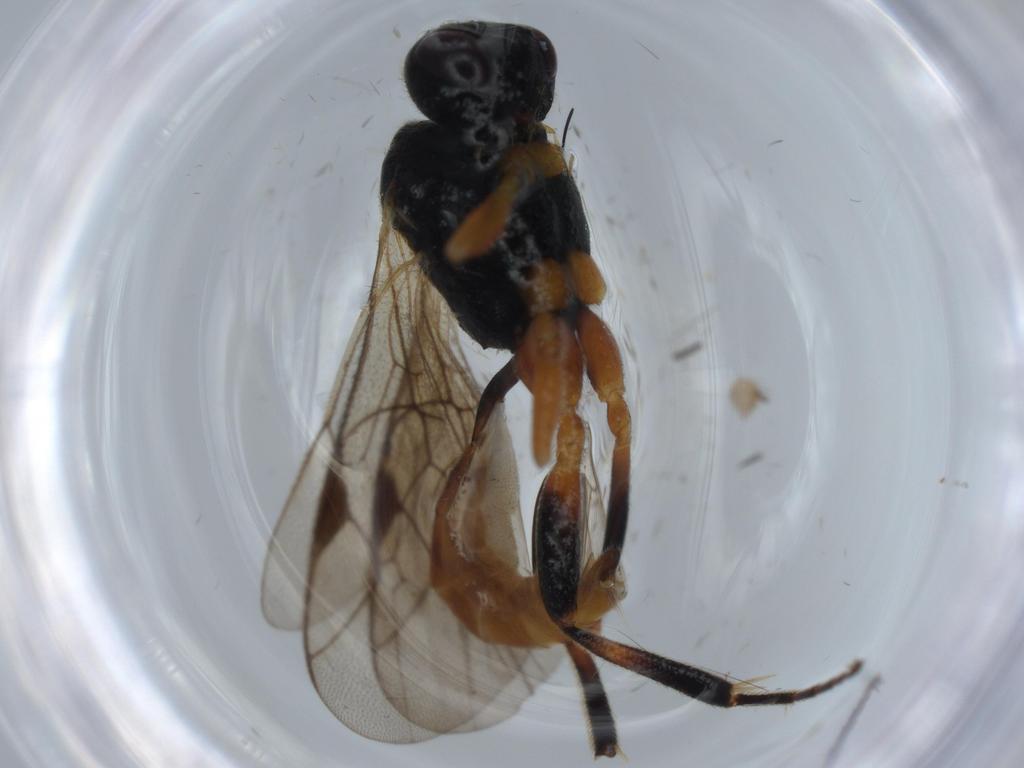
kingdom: Animalia
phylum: Arthropoda
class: Insecta
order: Hymenoptera
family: Ichneumonidae
